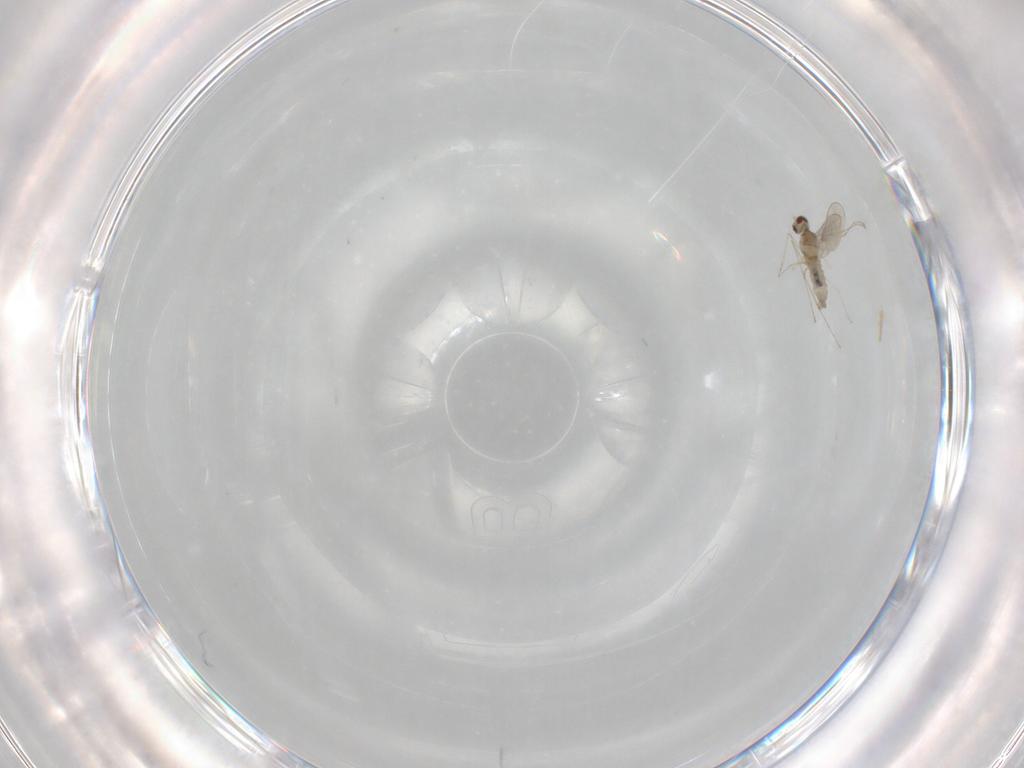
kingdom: Animalia
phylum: Arthropoda
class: Insecta
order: Diptera
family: Cecidomyiidae
